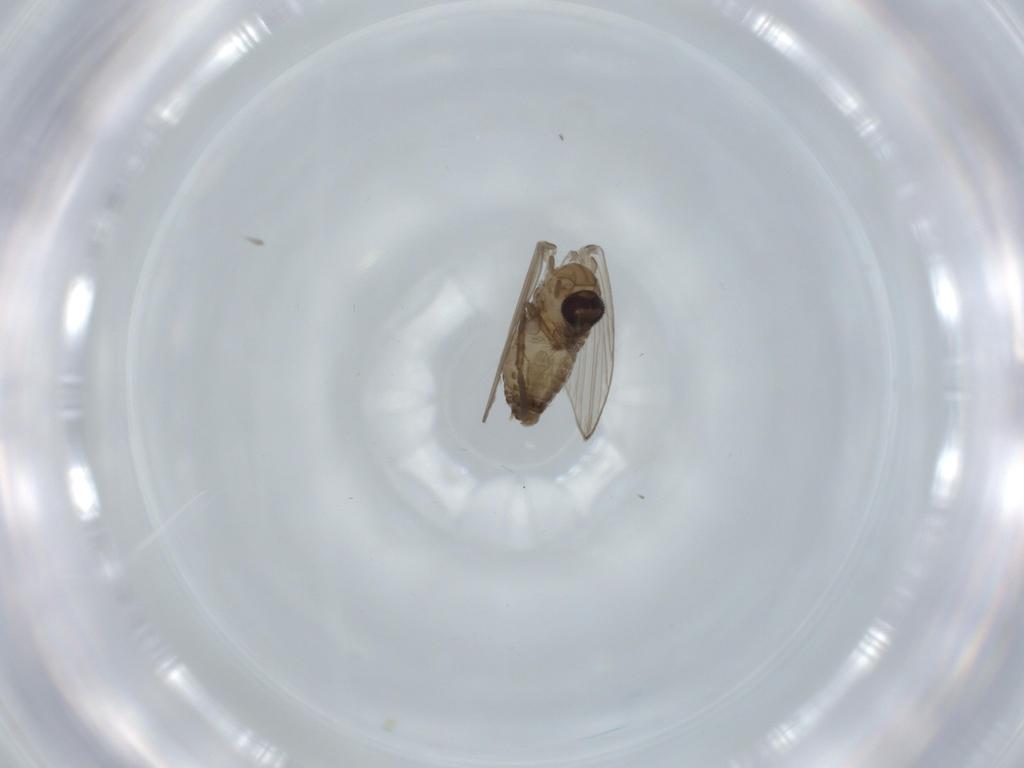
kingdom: Animalia
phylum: Arthropoda
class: Insecta
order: Diptera
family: Psychodidae
